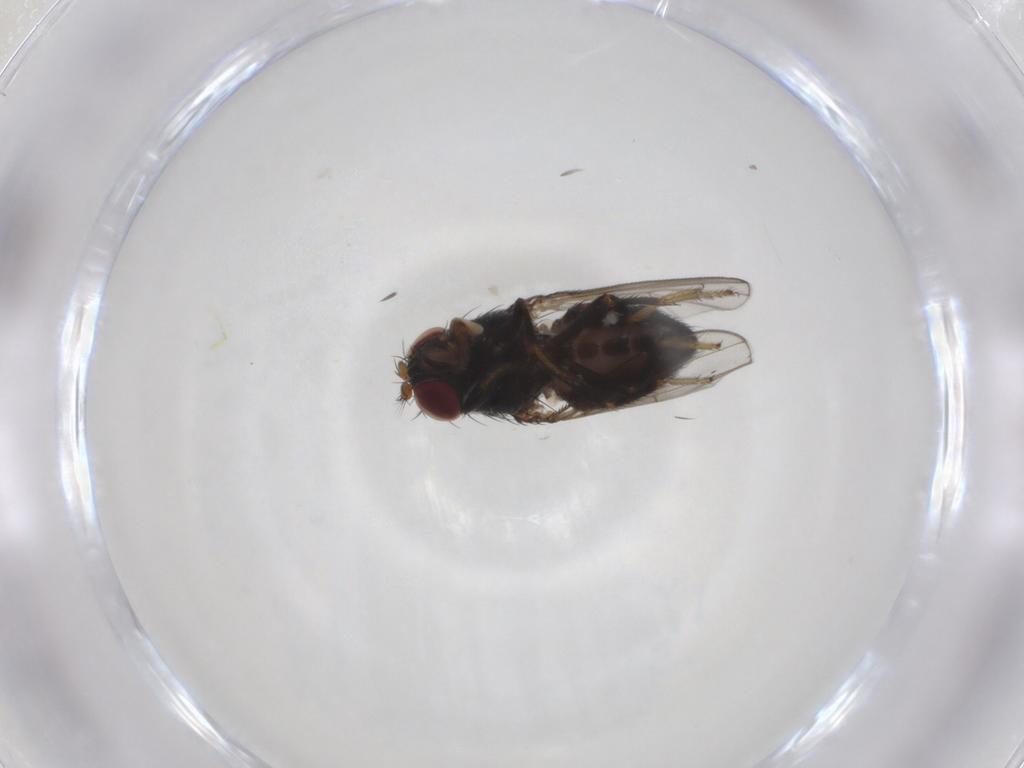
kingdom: Animalia
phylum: Arthropoda
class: Insecta
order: Diptera
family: Ephydridae
